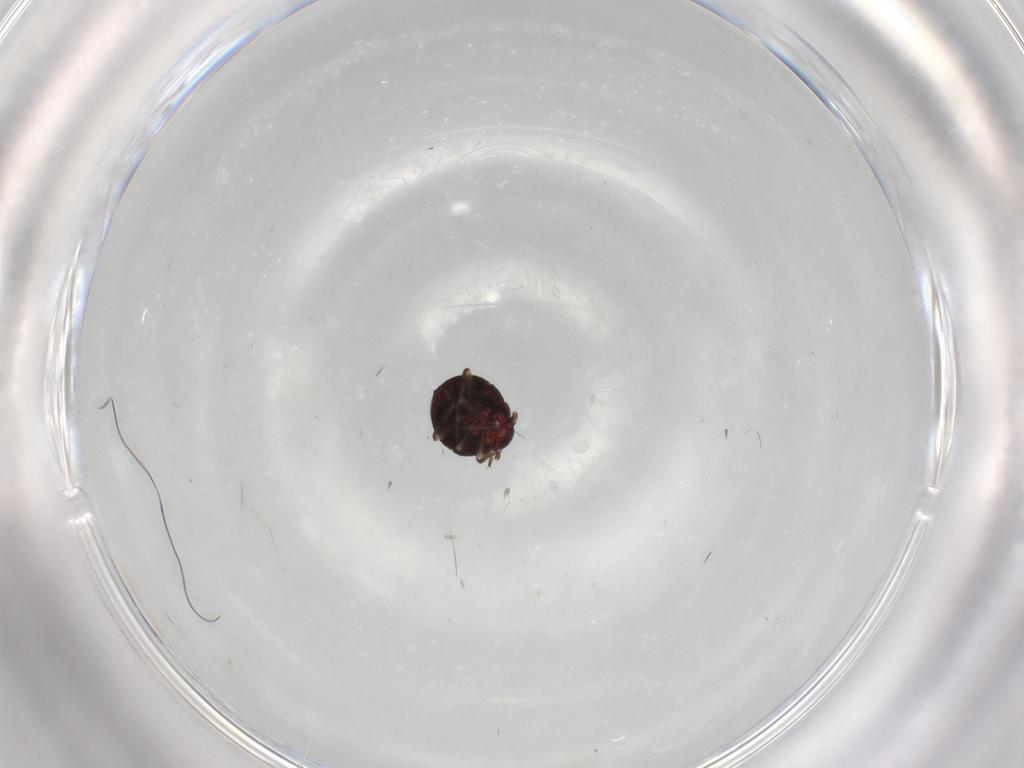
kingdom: Animalia
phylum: Arthropoda
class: Insecta
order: Hemiptera
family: Schizopteridae
